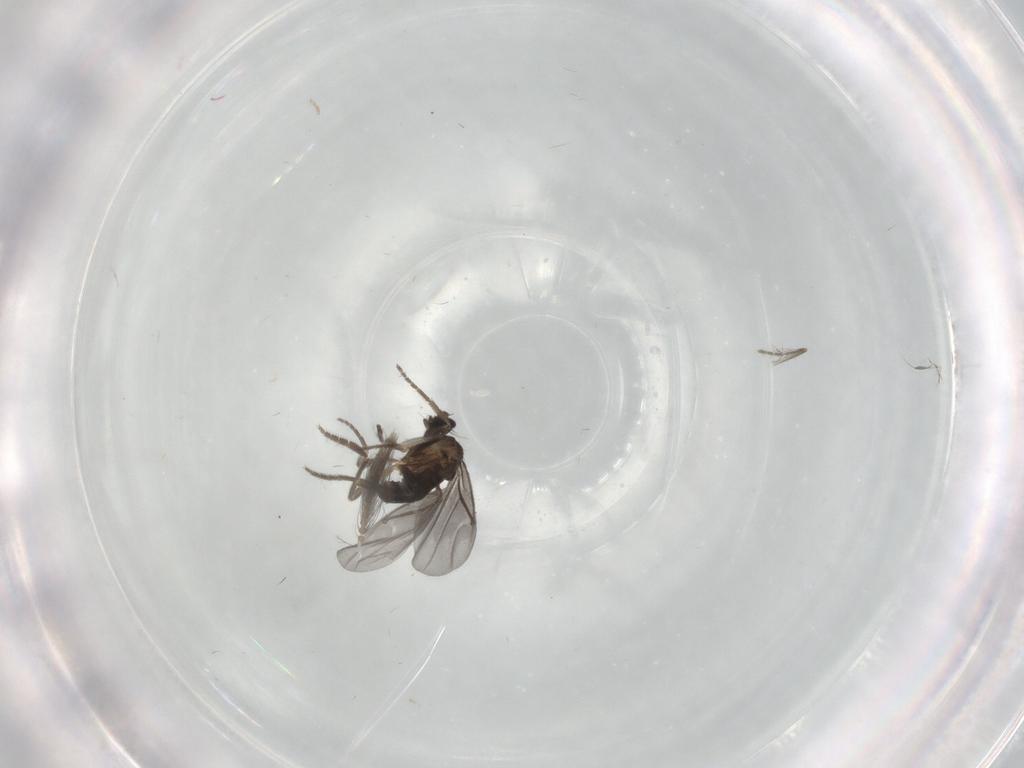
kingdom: Animalia
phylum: Arthropoda
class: Insecta
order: Diptera
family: Phoridae
